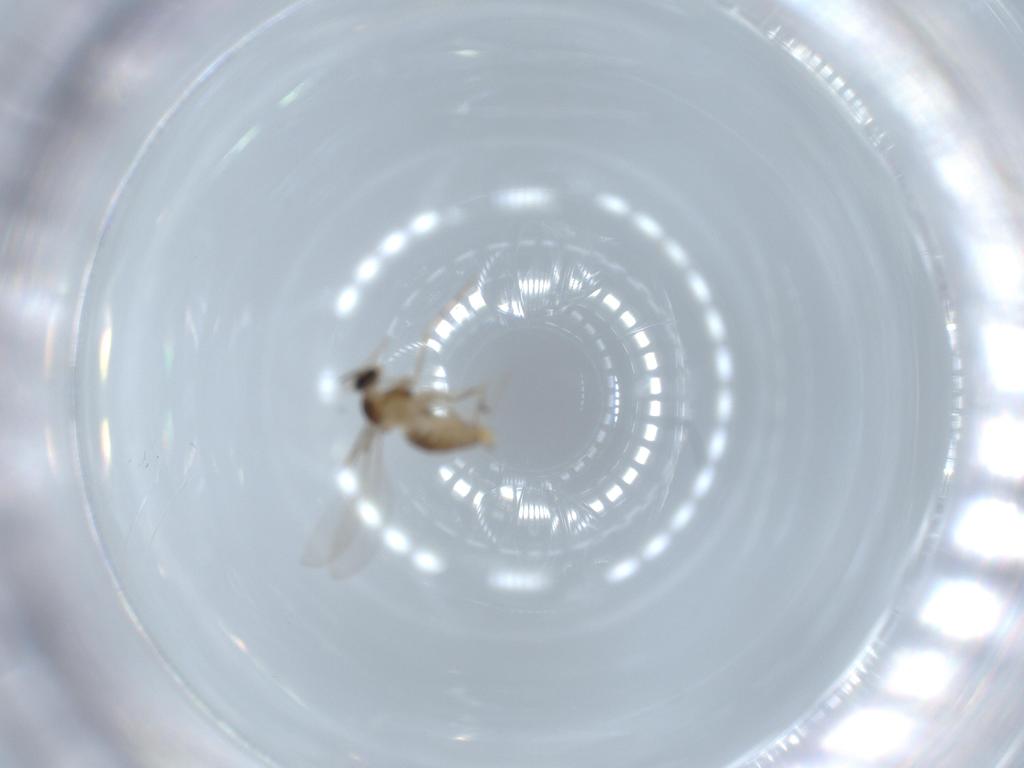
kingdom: Animalia
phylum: Arthropoda
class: Insecta
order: Diptera
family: Cecidomyiidae
